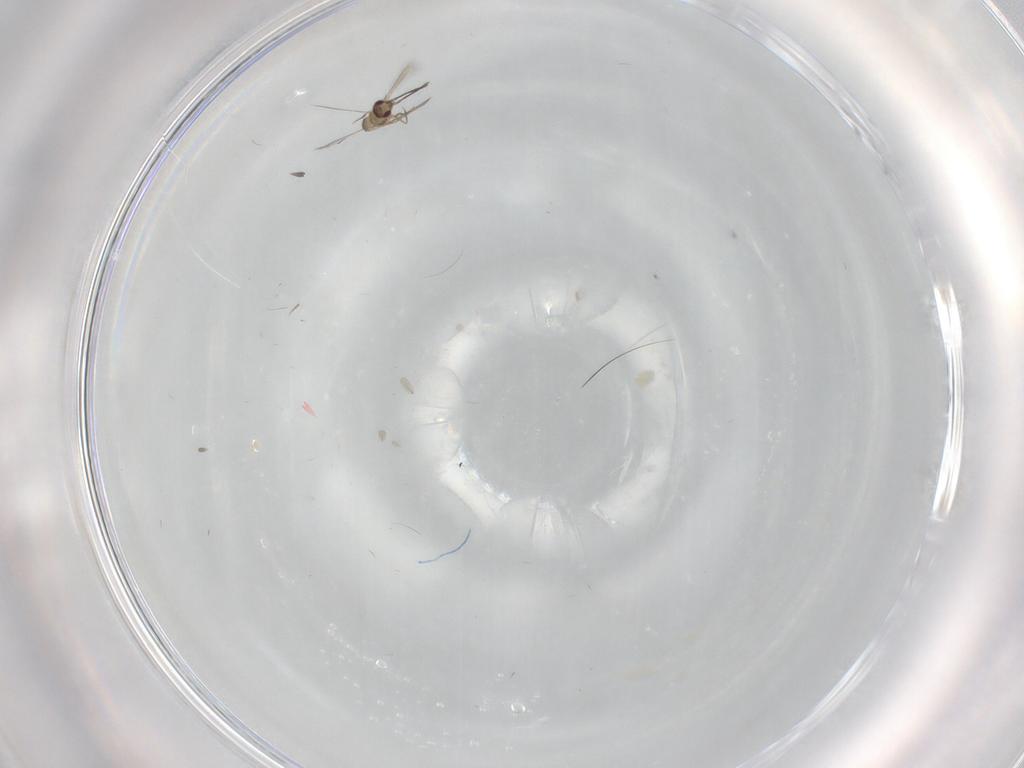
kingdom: Animalia
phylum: Arthropoda
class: Insecta
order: Hymenoptera
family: Mymaridae
